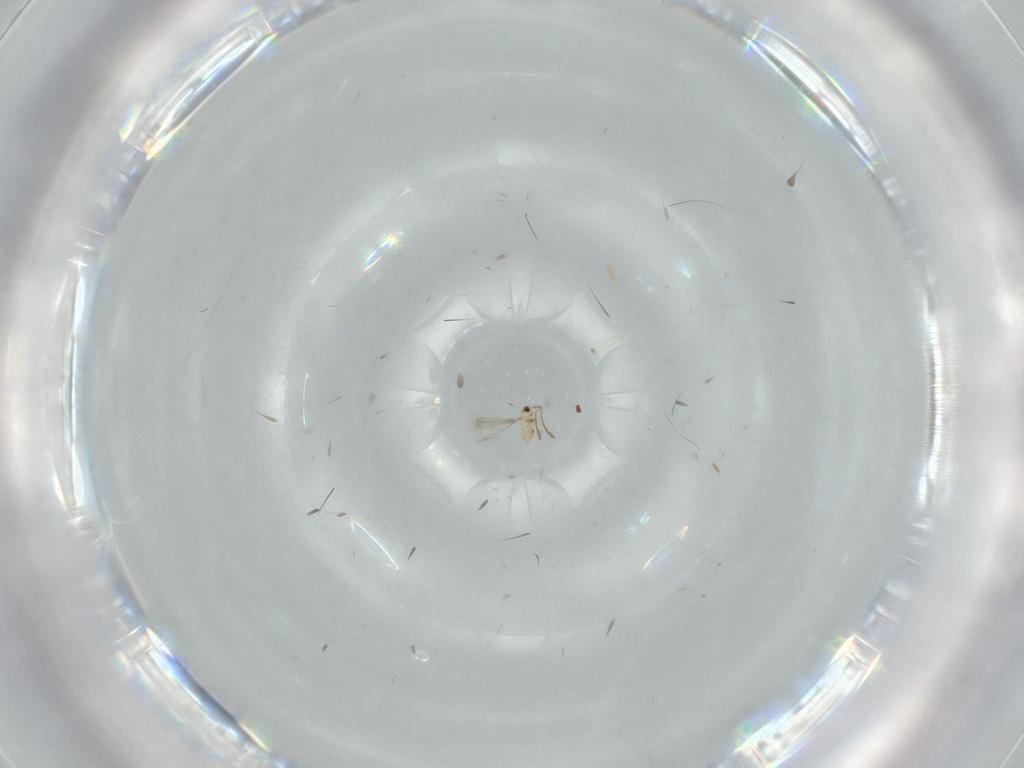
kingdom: Animalia
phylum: Arthropoda
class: Insecta
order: Hymenoptera
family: Mymaridae
